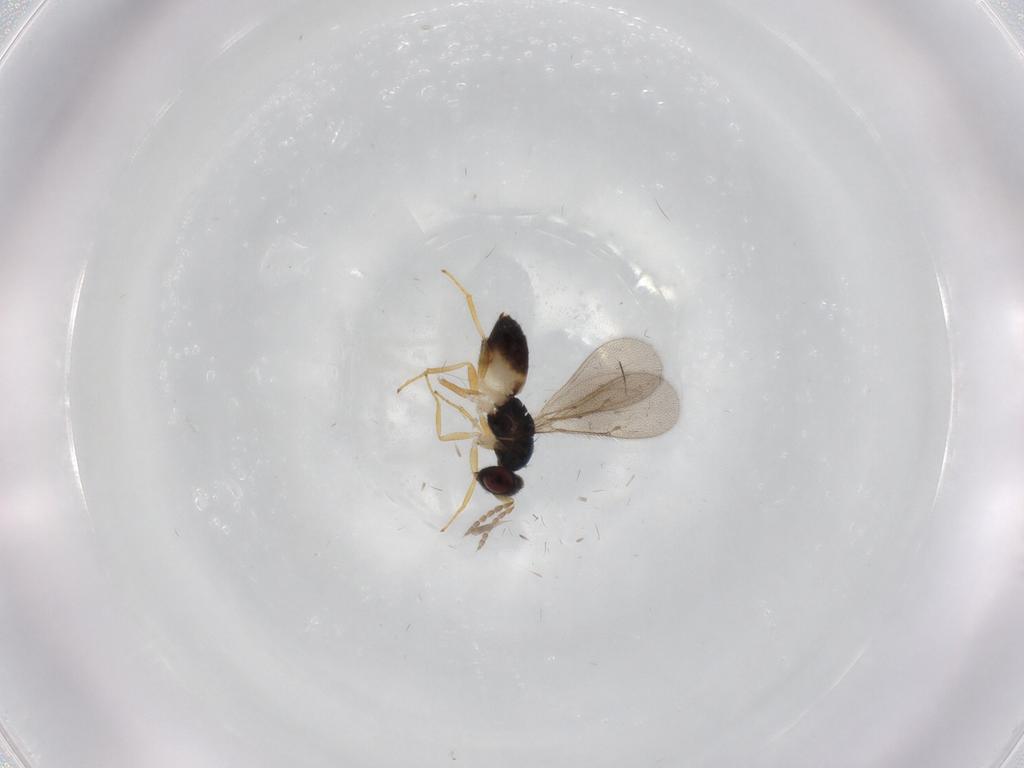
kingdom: Animalia
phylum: Arthropoda
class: Insecta
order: Hymenoptera
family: Eulophidae
